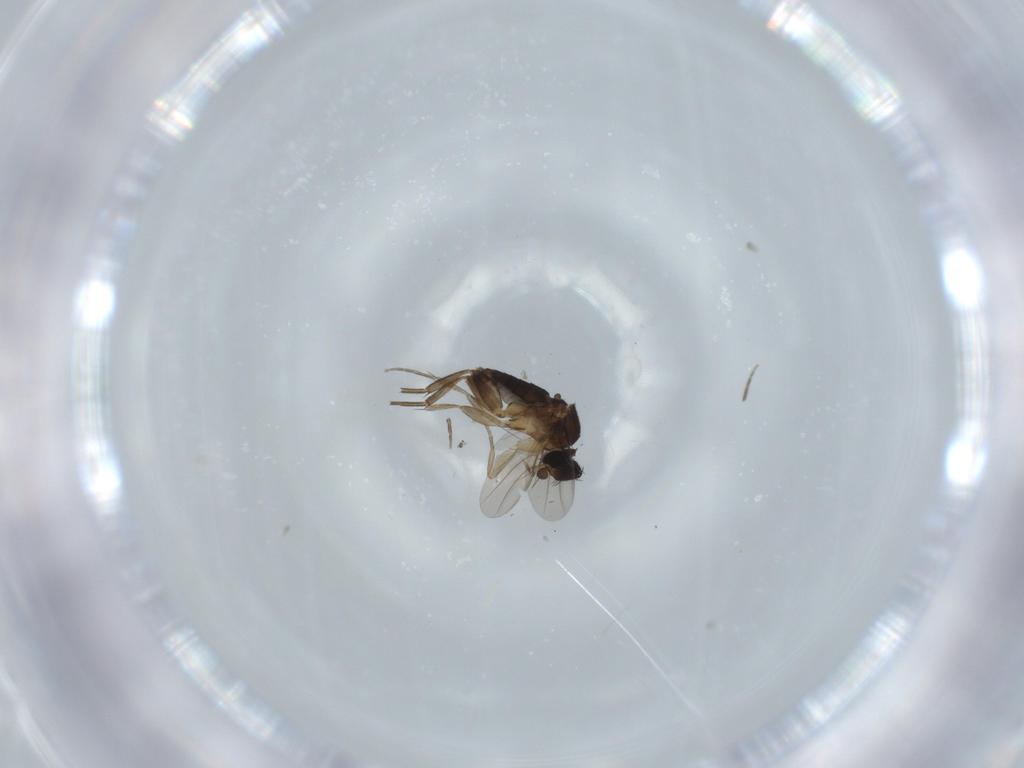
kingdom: Animalia
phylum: Arthropoda
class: Insecta
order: Diptera
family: Phoridae
